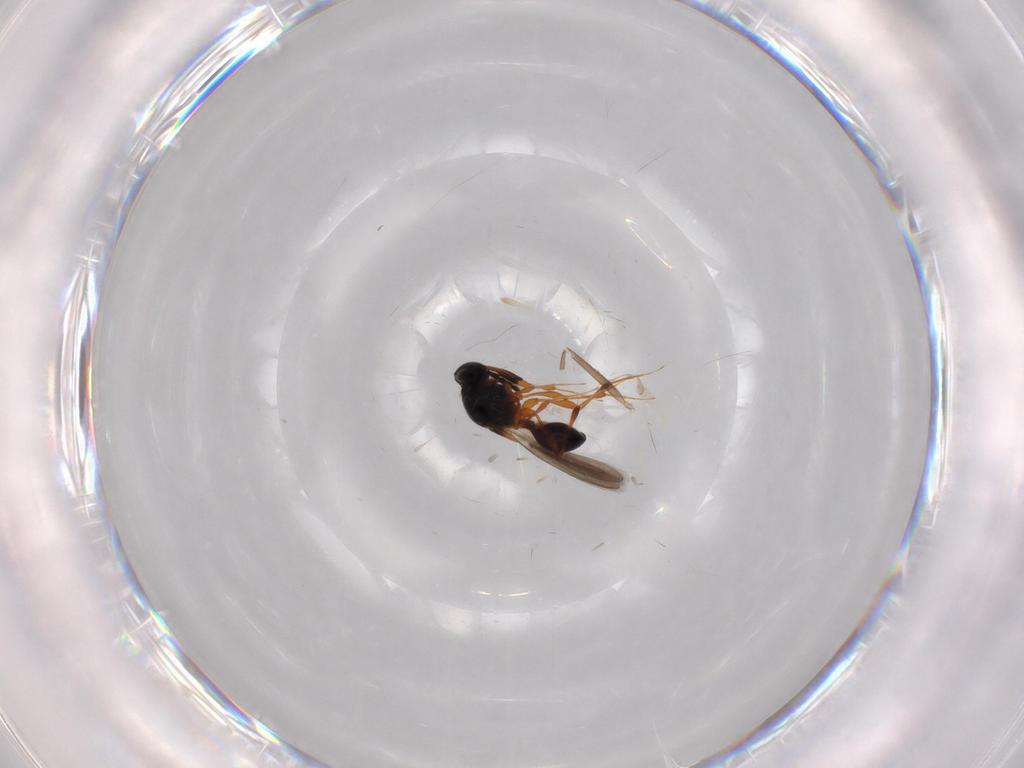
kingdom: Animalia
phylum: Arthropoda
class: Insecta
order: Hymenoptera
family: Platygastridae
